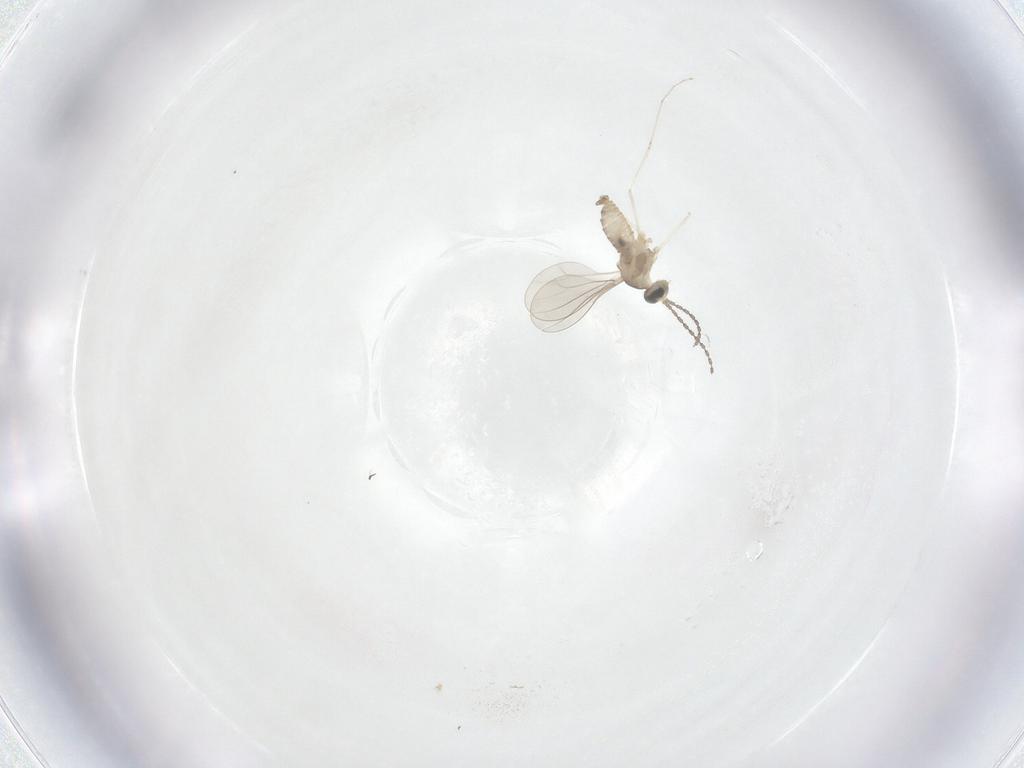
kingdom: Animalia
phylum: Arthropoda
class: Insecta
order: Diptera
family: Cecidomyiidae
